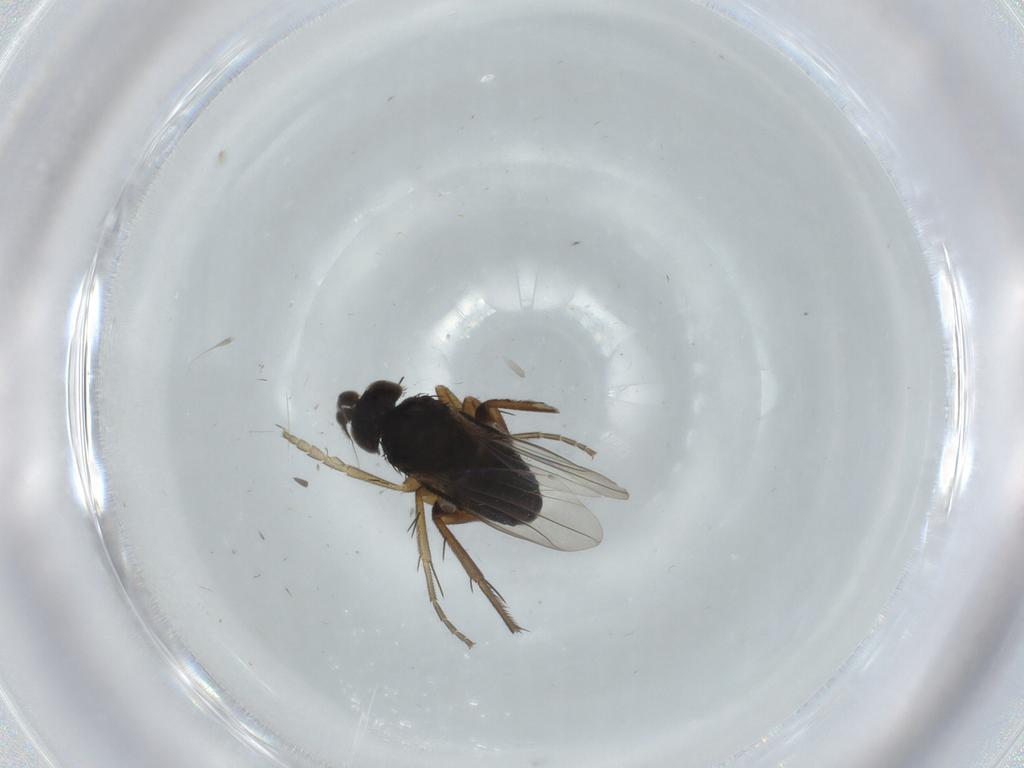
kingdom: Animalia
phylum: Arthropoda
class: Insecta
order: Diptera
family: Phoridae
